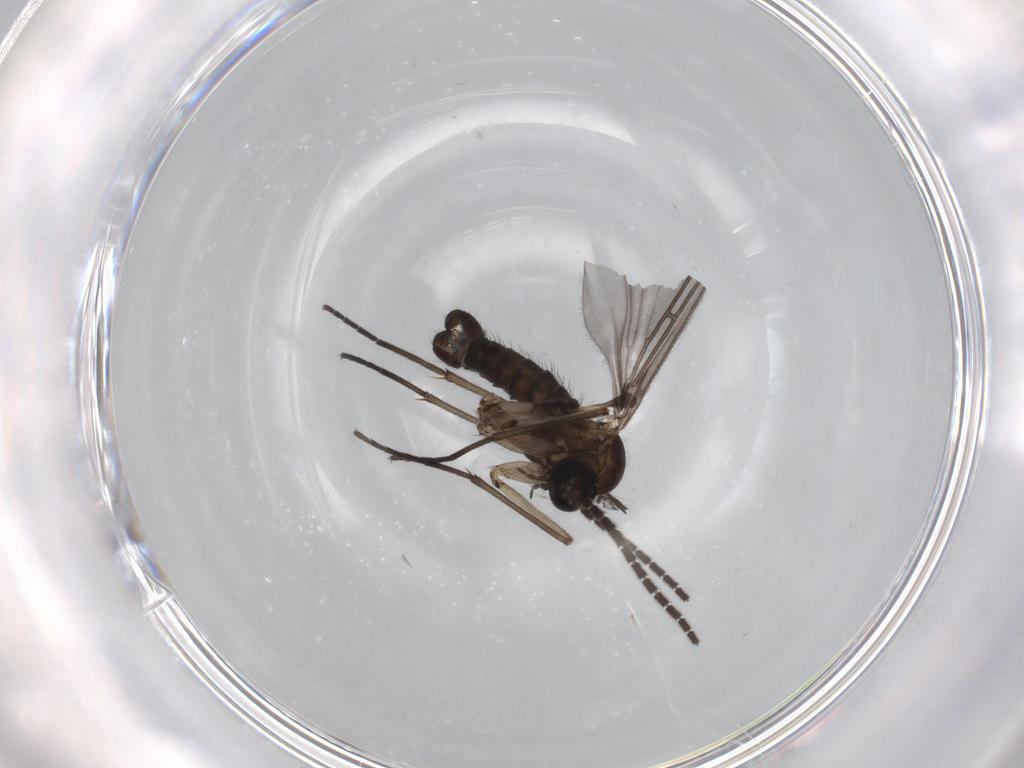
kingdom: Animalia
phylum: Arthropoda
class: Insecta
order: Diptera
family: Sciaridae
